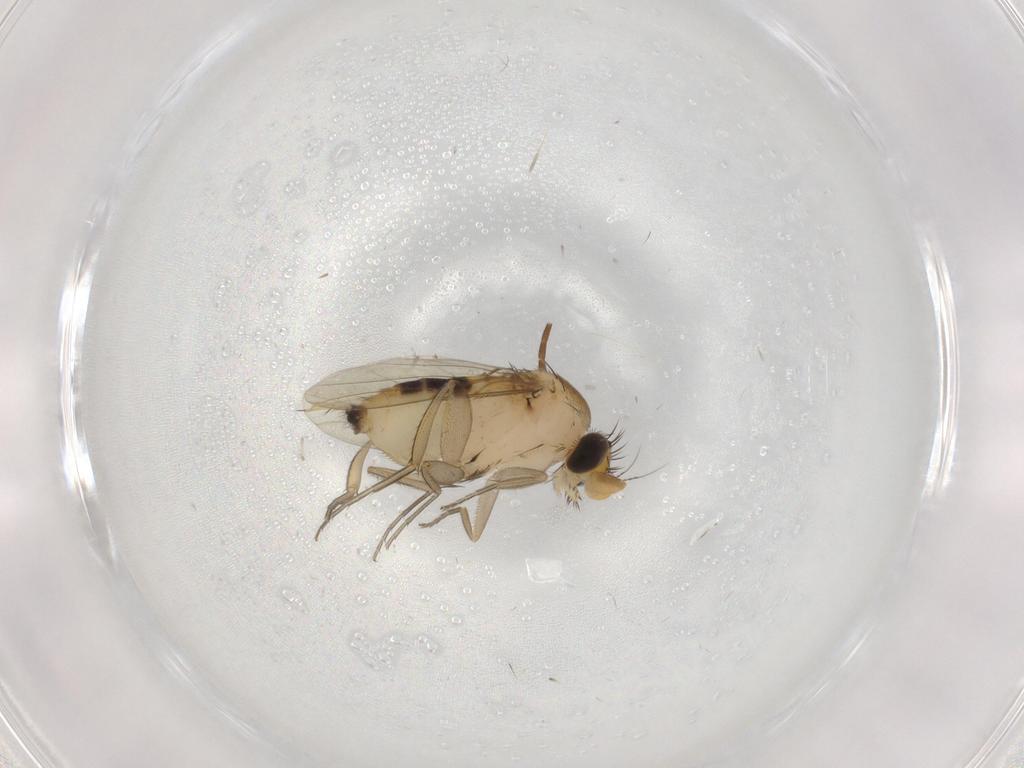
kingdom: Animalia
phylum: Arthropoda
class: Insecta
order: Diptera
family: Phoridae
